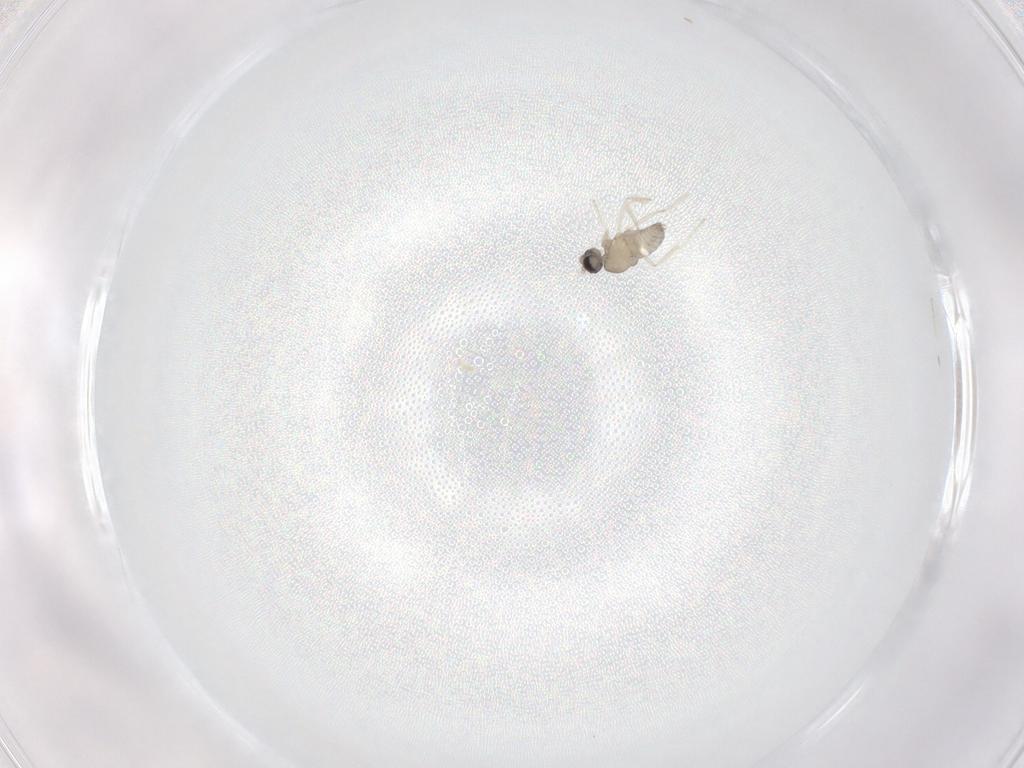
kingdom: Animalia
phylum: Arthropoda
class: Insecta
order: Diptera
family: Cecidomyiidae
